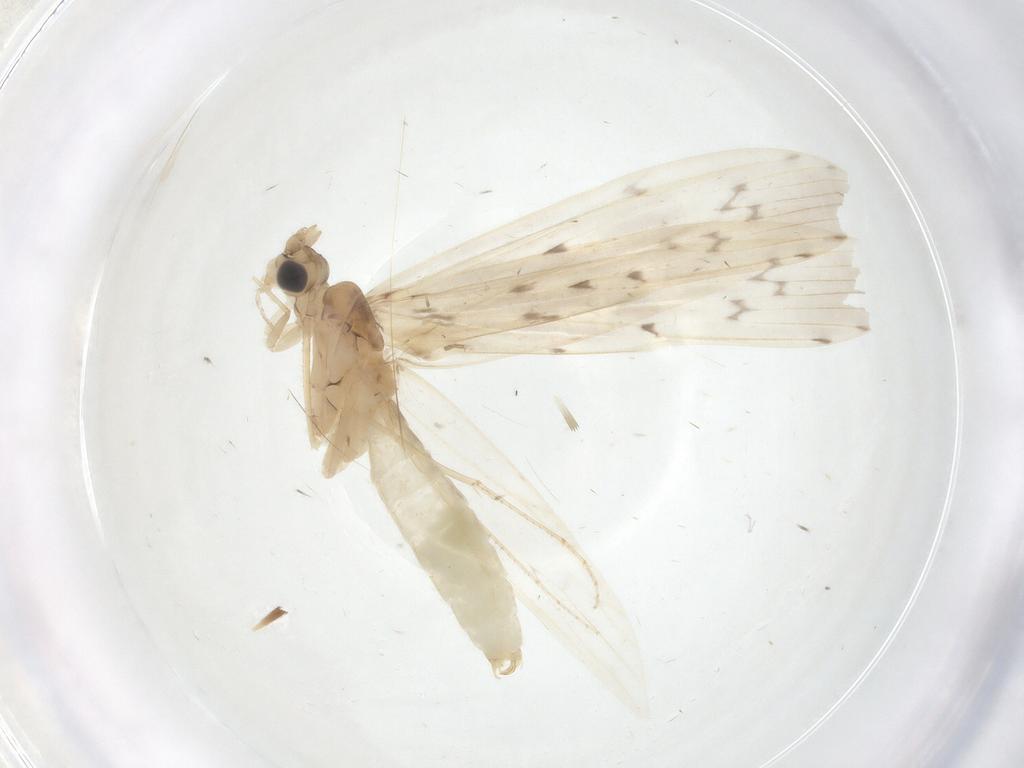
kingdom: Animalia
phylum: Arthropoda
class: Insecta
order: Trichoptera
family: Leptoceridae
